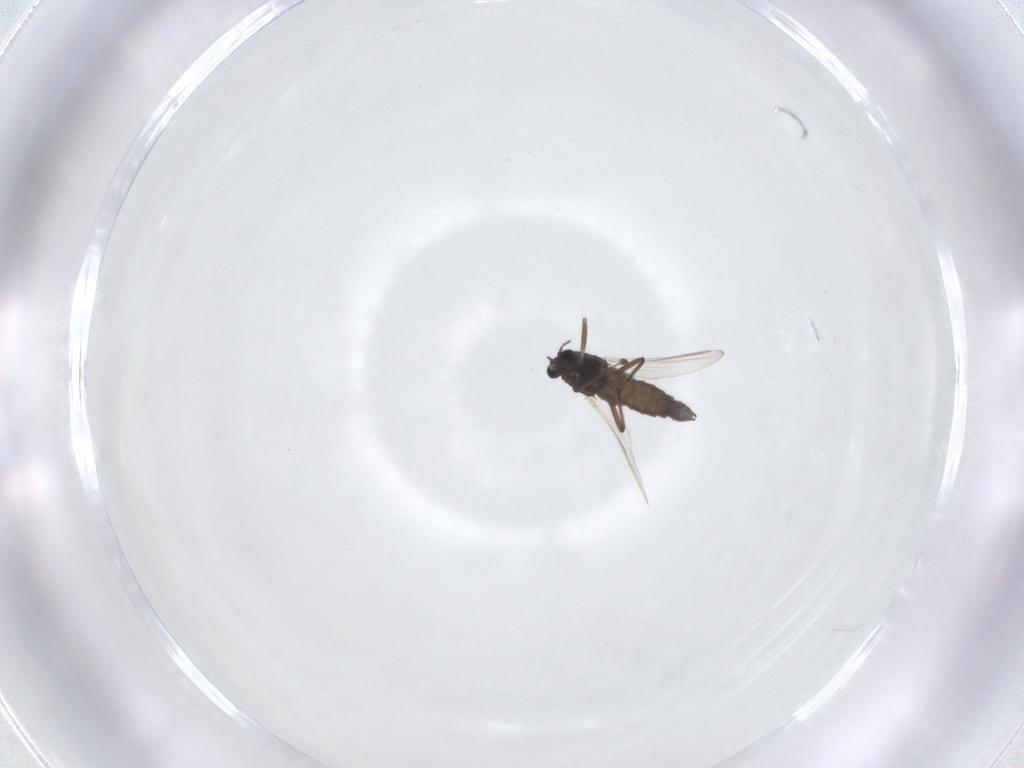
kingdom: Animalia
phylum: Arthropoda
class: Insecta
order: Diptera
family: Chironomidae
